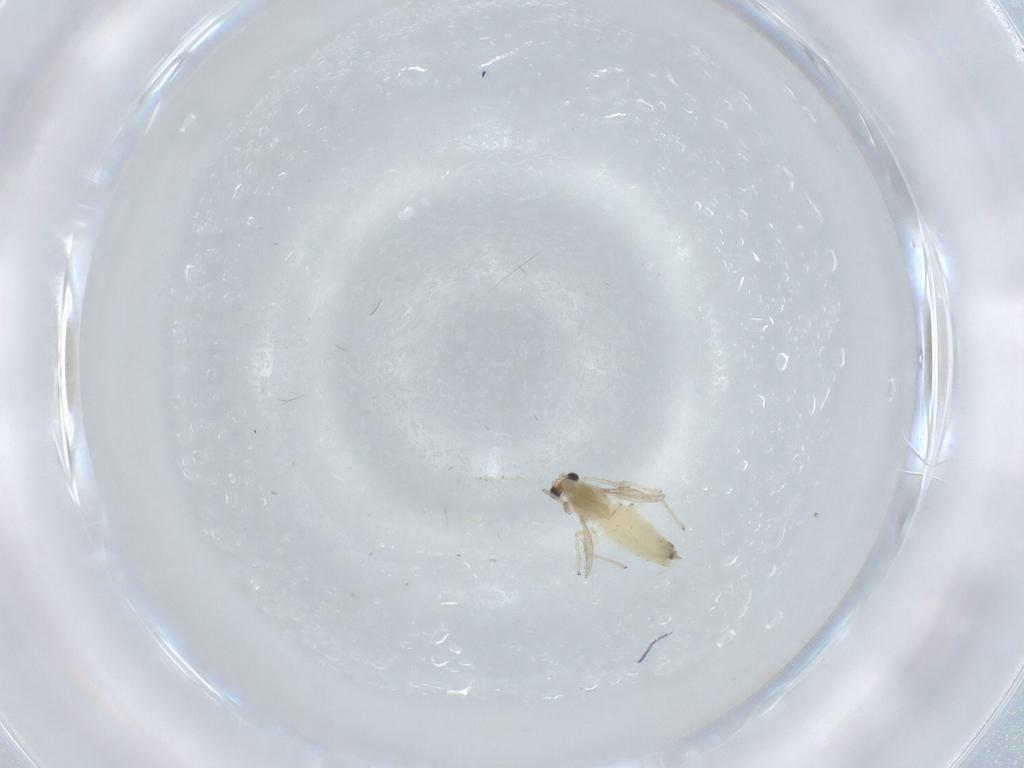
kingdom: Animalia
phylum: Arthropoda
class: Insecta
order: Diptera
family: Chironomidae
